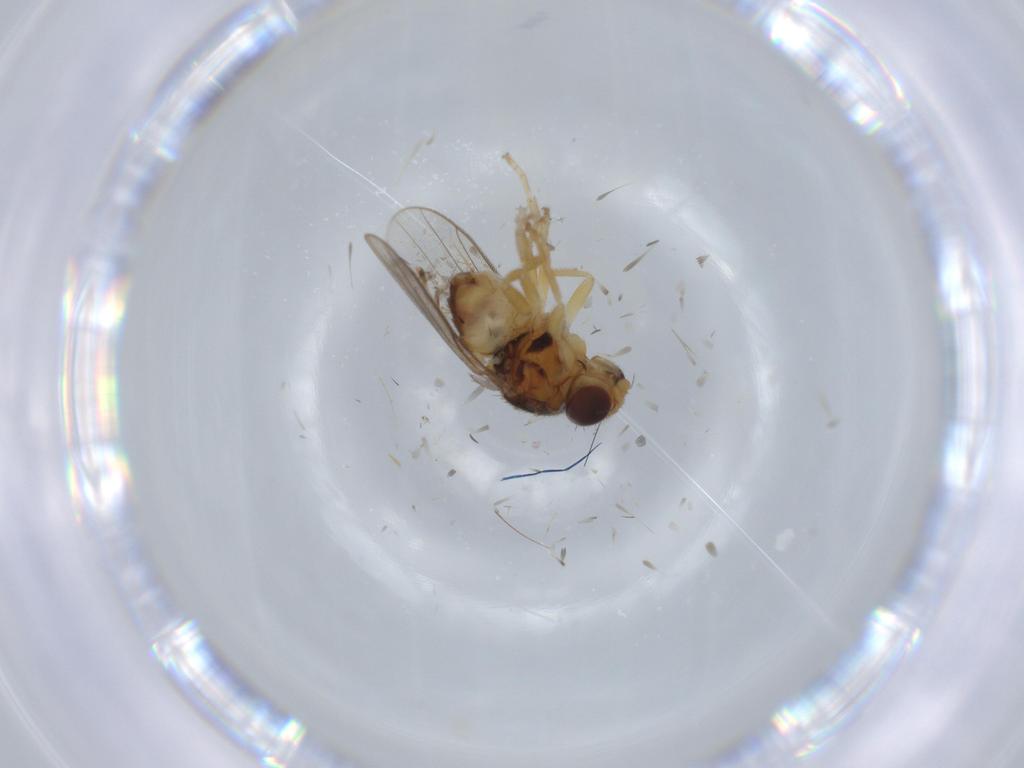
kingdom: Animalia
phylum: Arthropoda
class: Insecta
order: Diptera
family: Chloropidae
